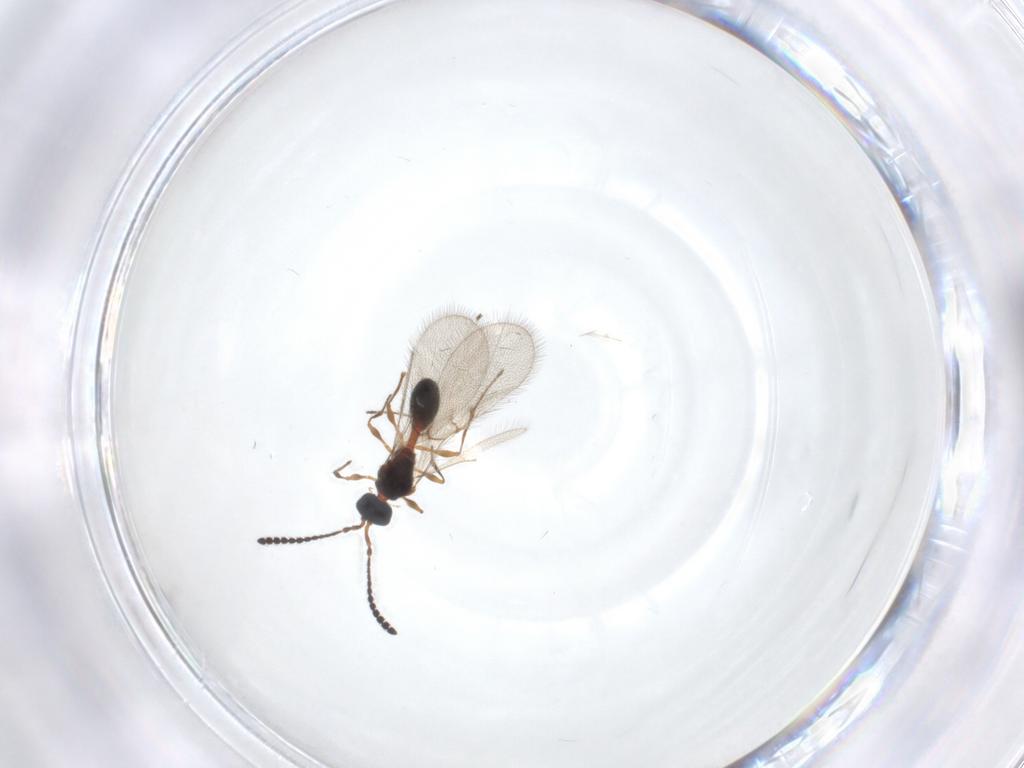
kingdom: Animalia
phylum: Arthropoda
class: Insecta
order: Hymenoptera
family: Diapriidae
